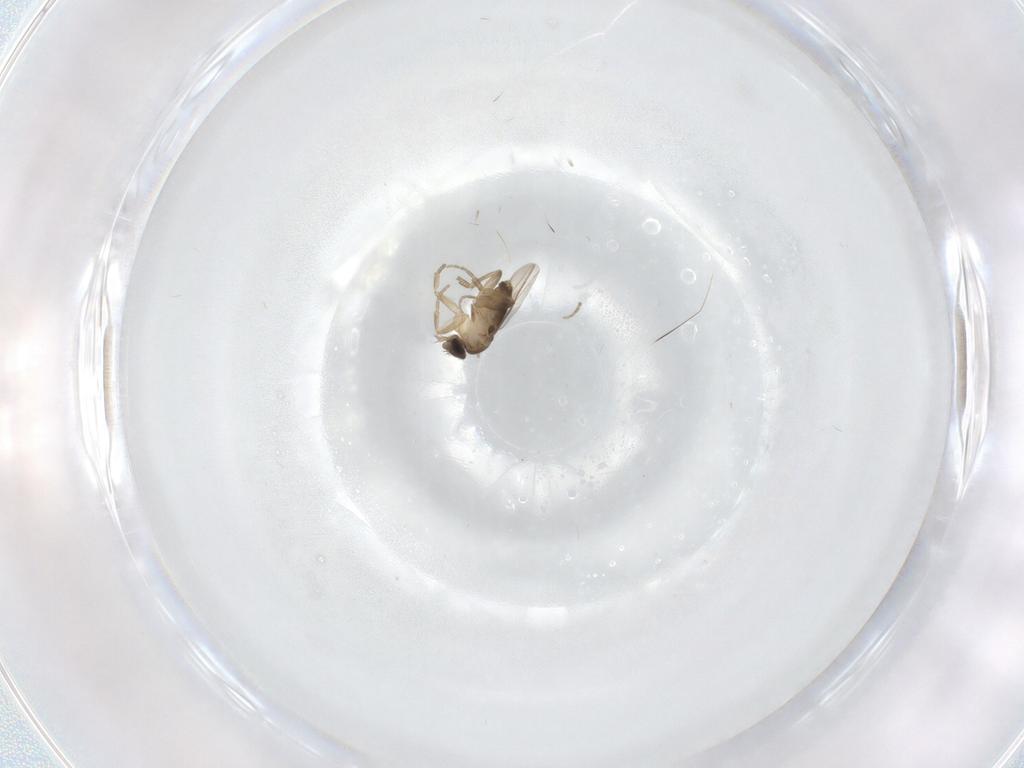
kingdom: Animalia
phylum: Arthropoda
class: Insecta
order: Diptera
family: Phoridae
